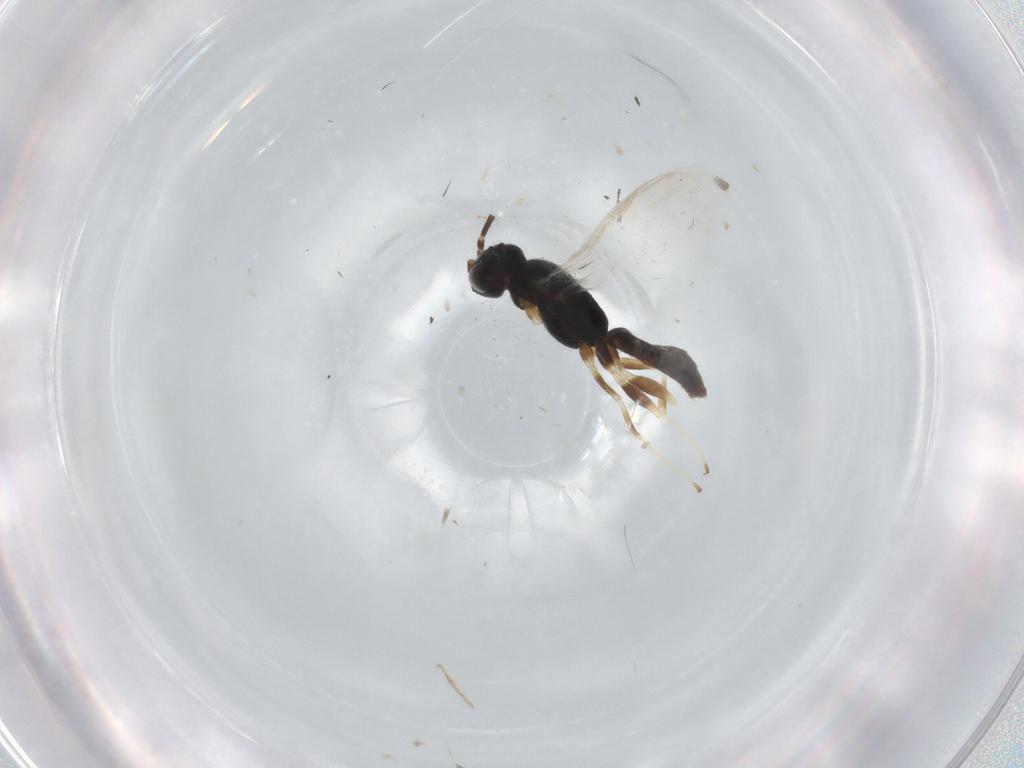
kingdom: Animalia
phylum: Arthropoda
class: Insecta
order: Hymenoptera
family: Dryinidae
